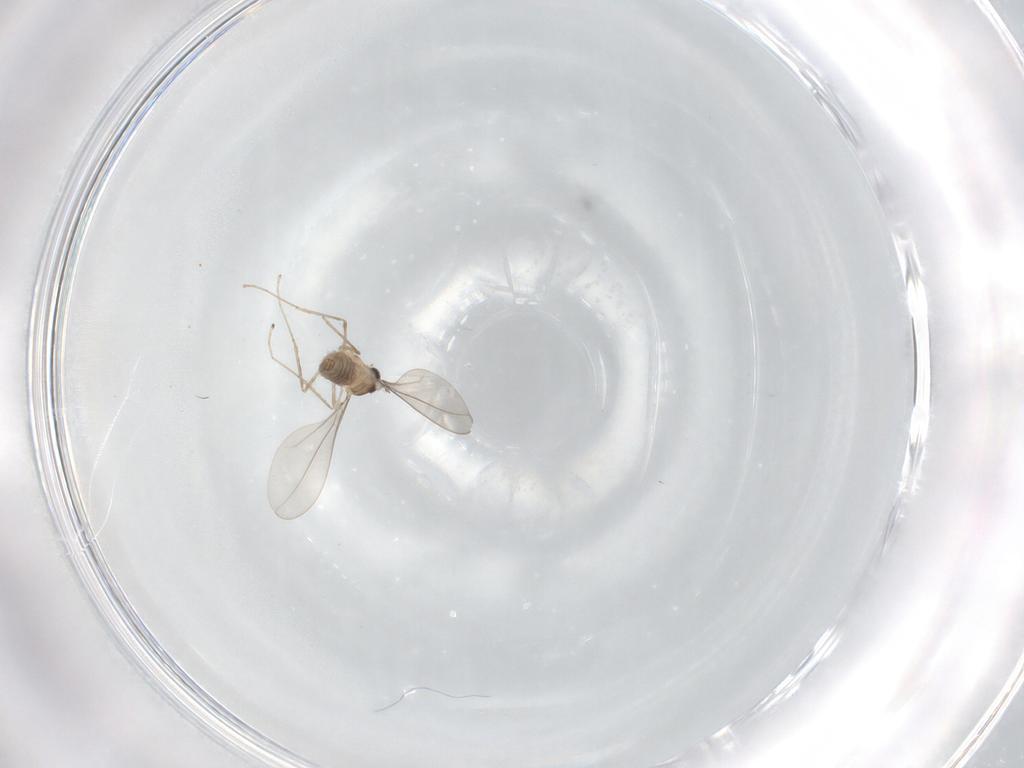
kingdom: Animalia
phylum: Arthropoda
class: Insecta
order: Diptera
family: Cecidomyiidae
